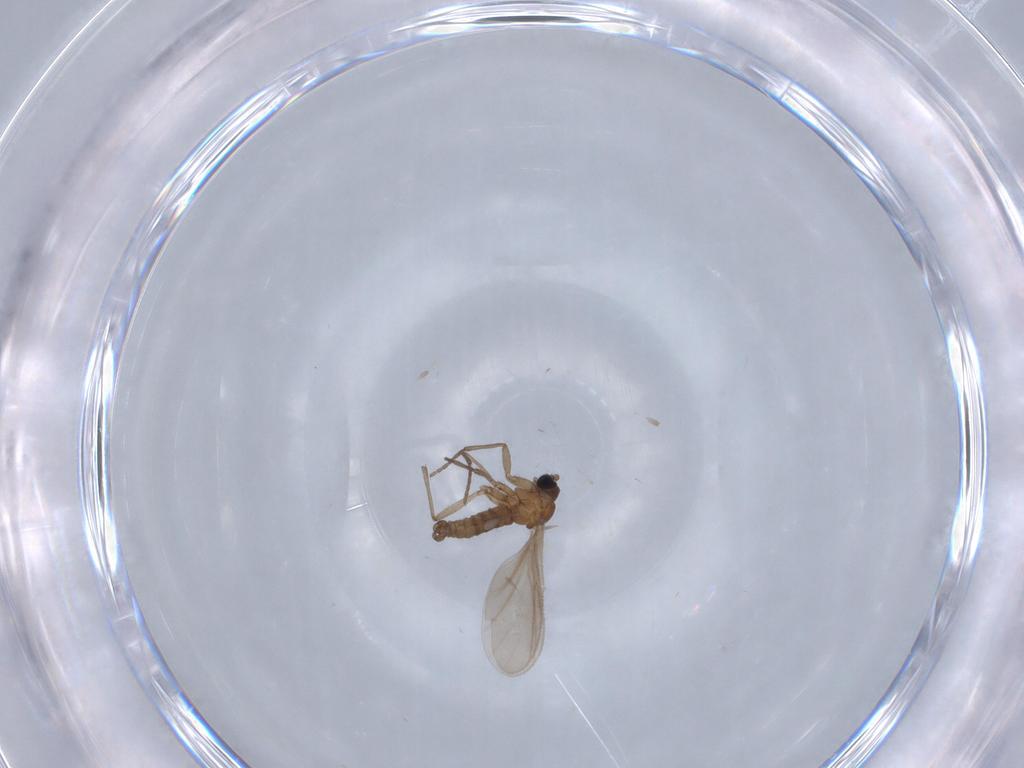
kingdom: Animalia
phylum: Arthropoda
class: Insecta
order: Diptera
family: Sciaridae
